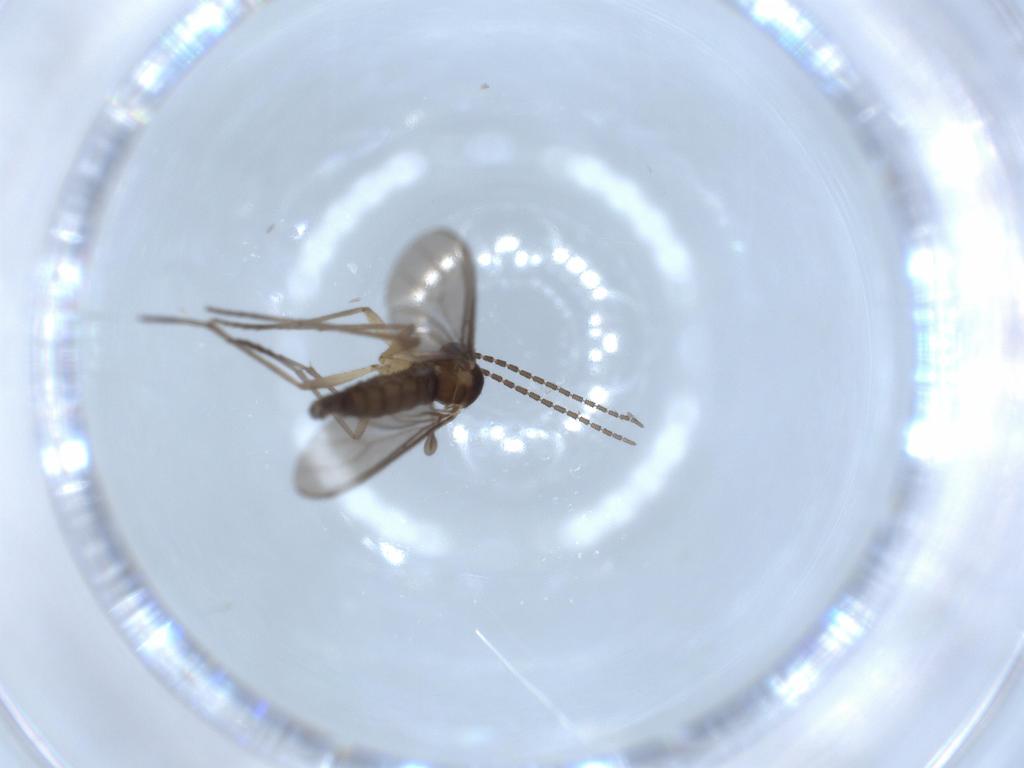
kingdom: Animalia
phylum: Arthropoda
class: Insecta
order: Diptera
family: Sciaridae
